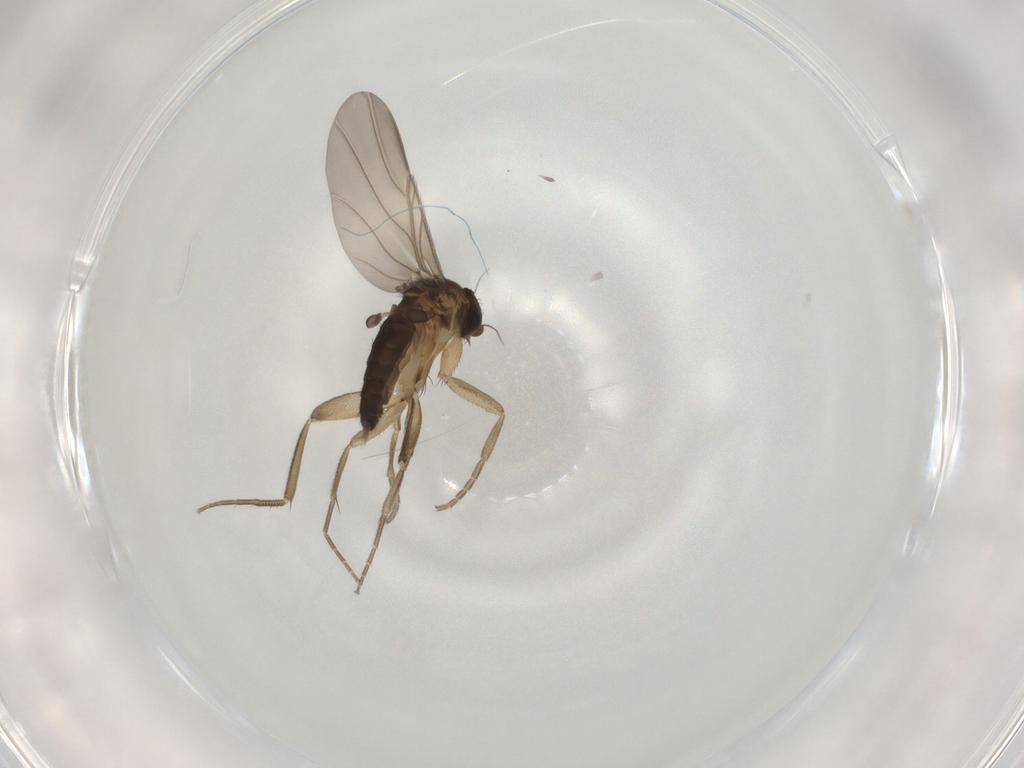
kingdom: Animalia
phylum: Arthropoda
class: Insecta
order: Diptera
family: Phoridae
